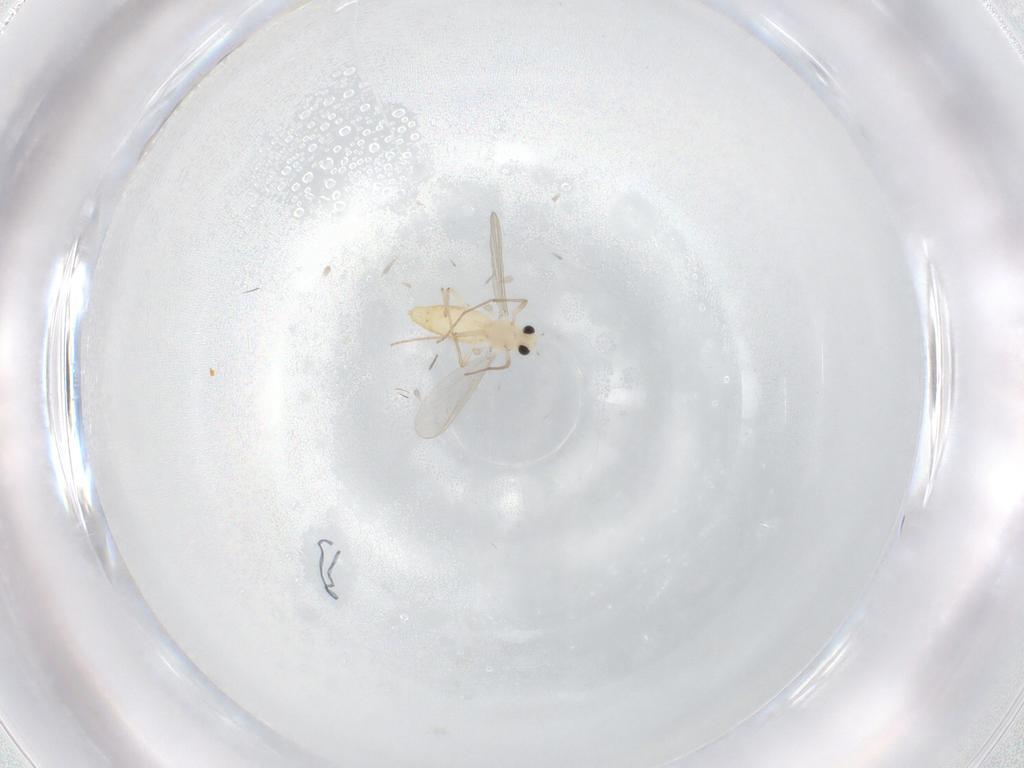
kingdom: Animalia
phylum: Arthropoda
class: Insecta
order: Diptera
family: Chironomidae
